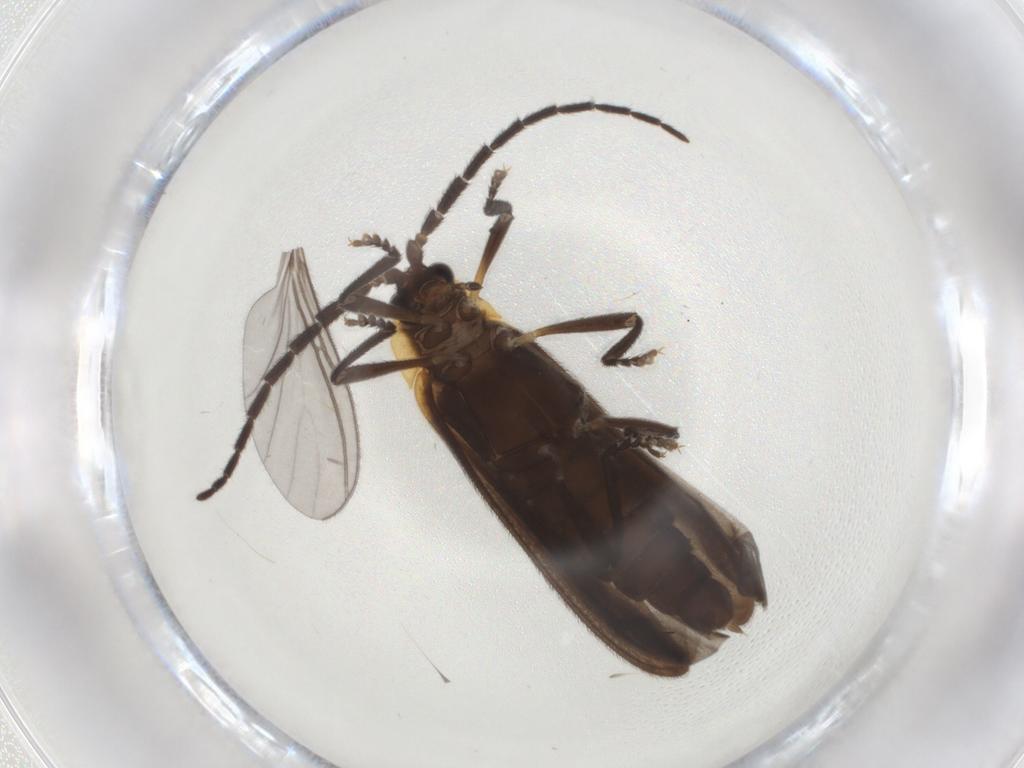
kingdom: Animalia
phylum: Arthropoda
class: Insecta
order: Coleoptera
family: Lycidae
